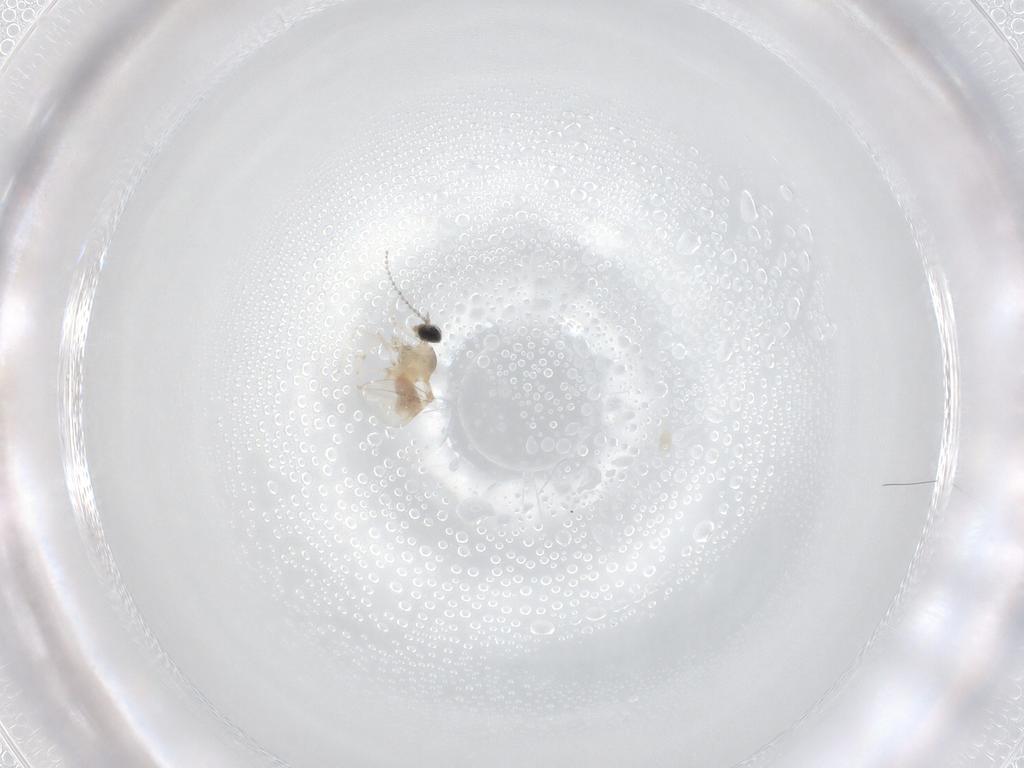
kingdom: Animalia
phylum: Arthropoda
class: Insecta
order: Diptera
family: Cecidomyiidae
